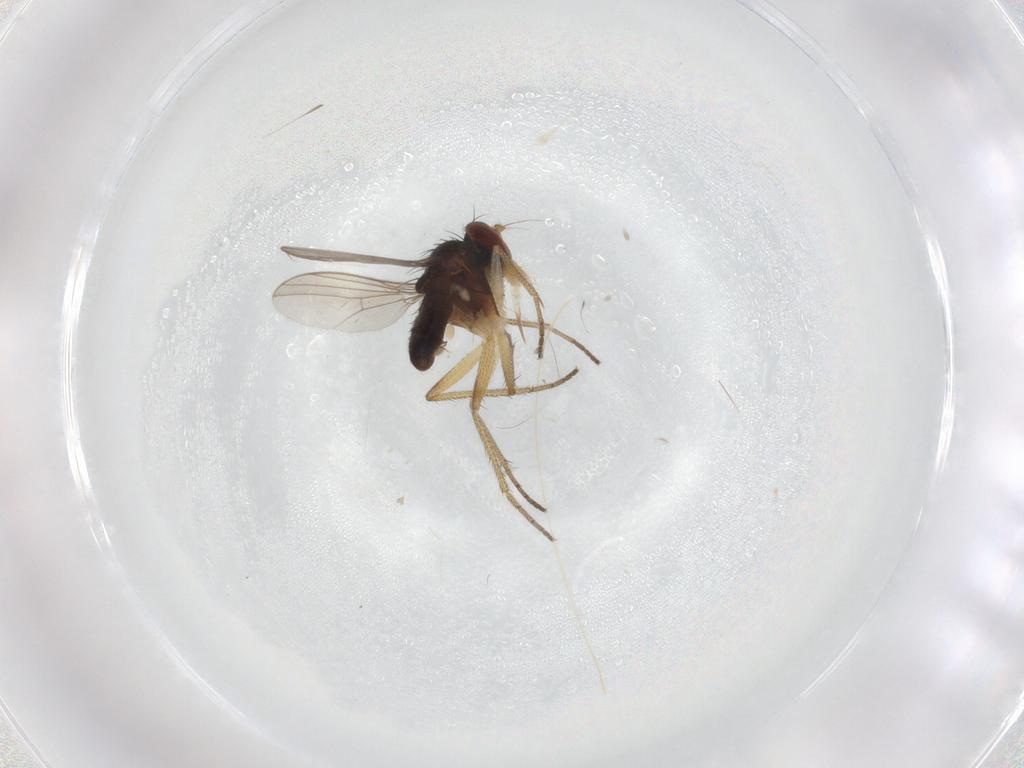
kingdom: Animalia
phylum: Arthropoda
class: Insecta
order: Diptera
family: Dolichopodidae
